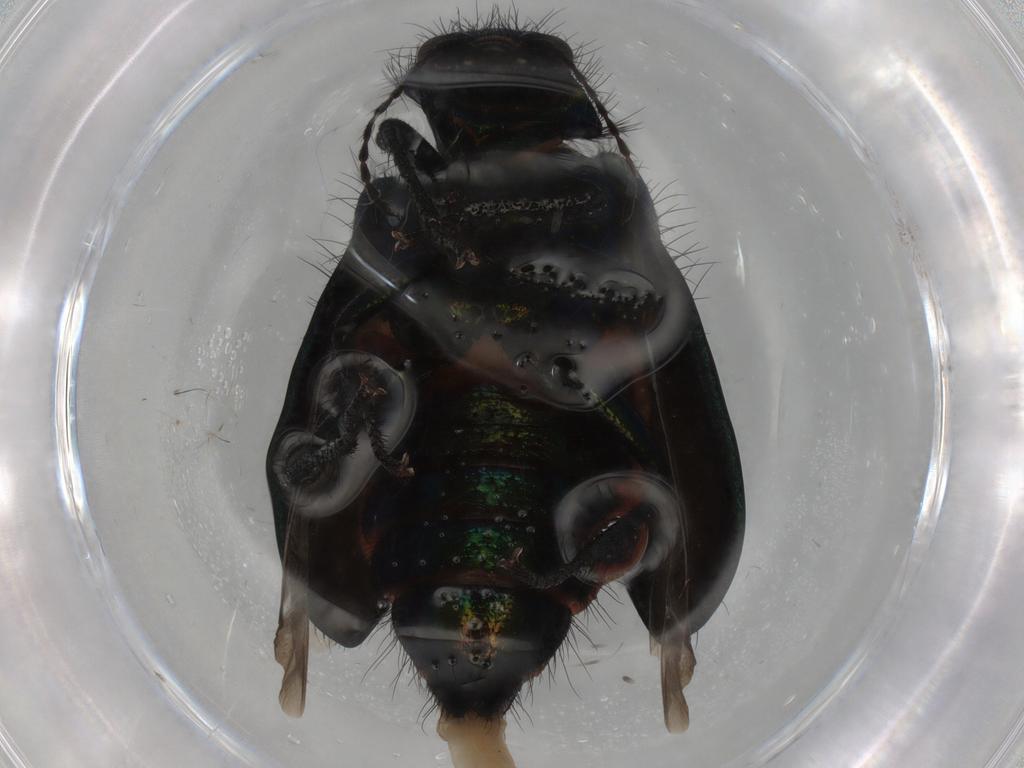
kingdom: Animalia
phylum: Arthropoda
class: Insecta
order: Coleoptera
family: Melyridae
